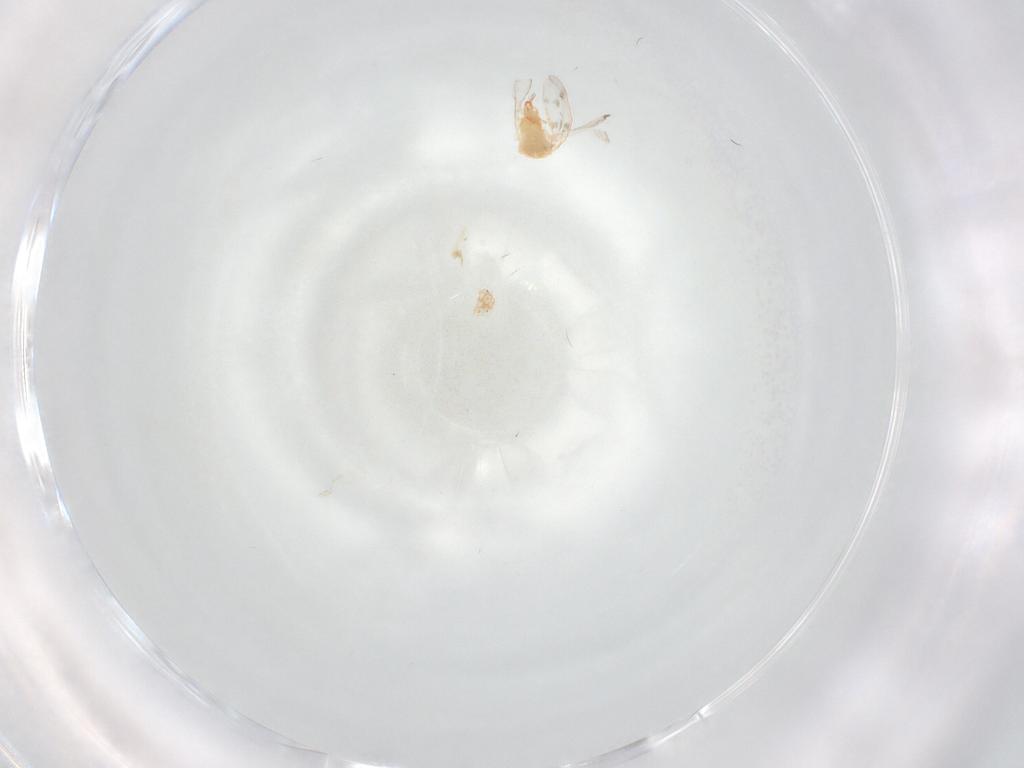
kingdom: Animalia
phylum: Arthropoda
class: Insecta
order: Hemiptera
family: Aleyrodidae
